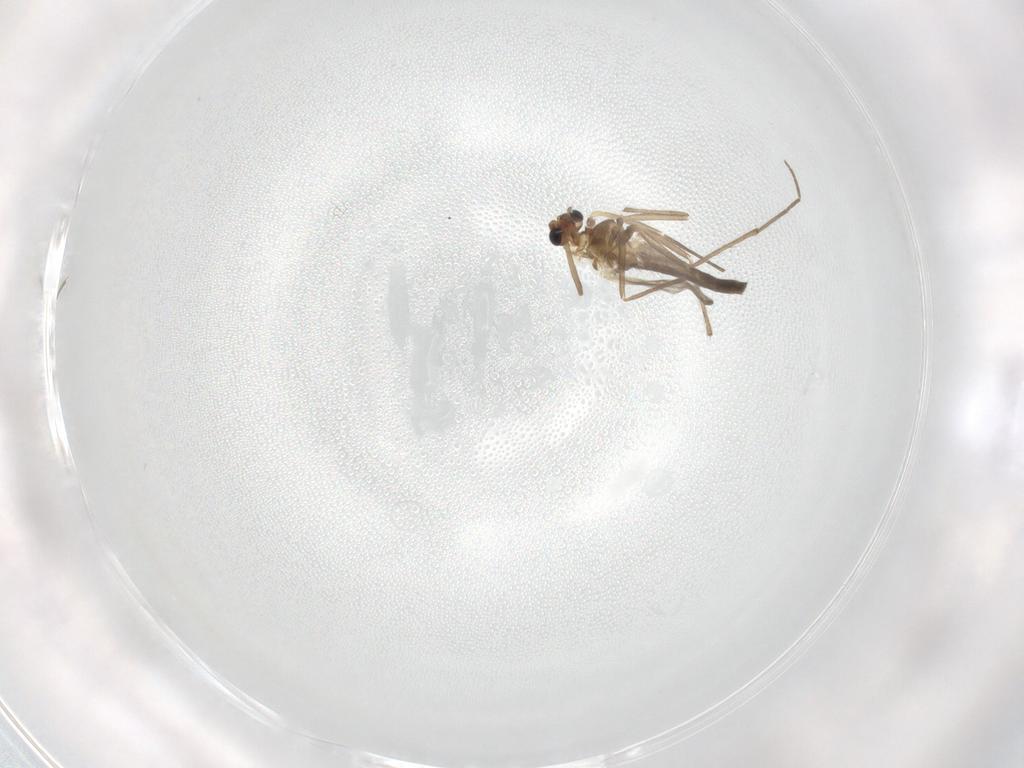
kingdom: Animalia
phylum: Arthropoda
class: Insecta
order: Diptera
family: Chironomidae
